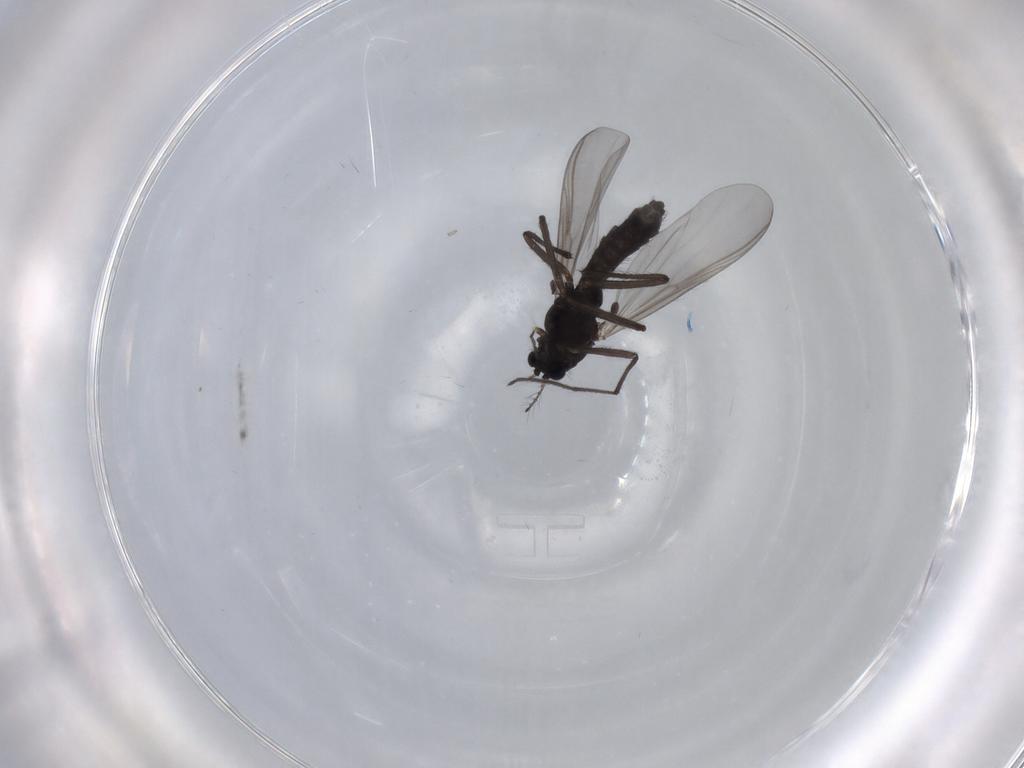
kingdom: Animalia
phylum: Arthropoda
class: Insecta
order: Diptera
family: Chironomidae
